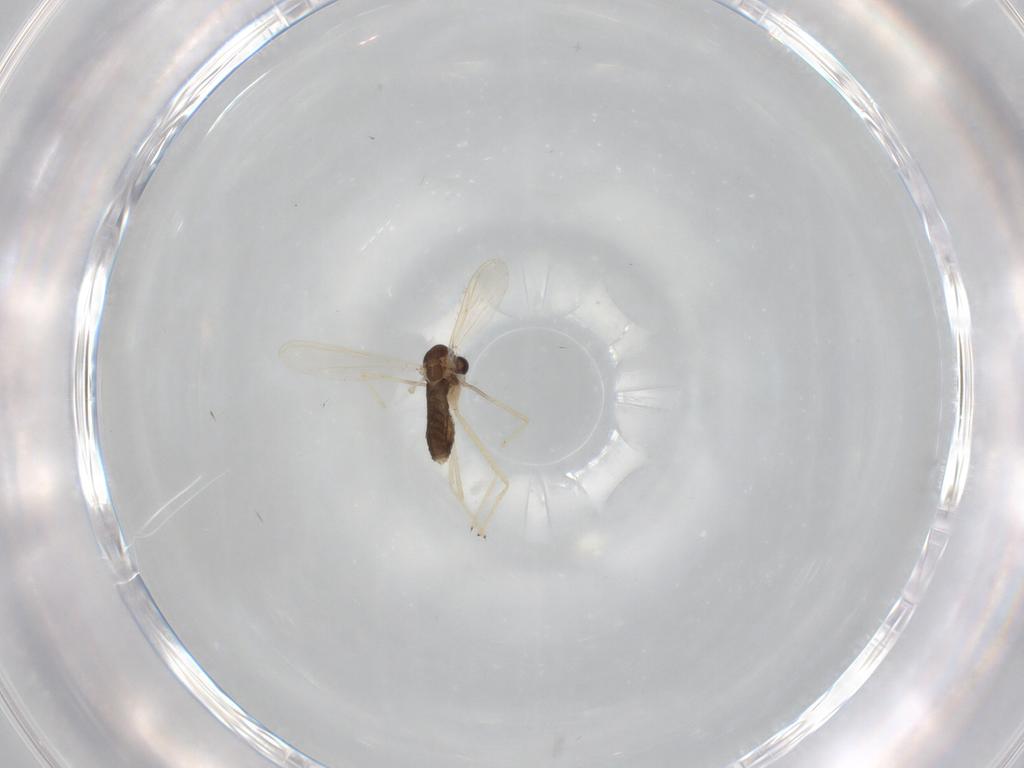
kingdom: Animalia
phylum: Arthropoda
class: Insecta
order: Diptera
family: Chironomidae
